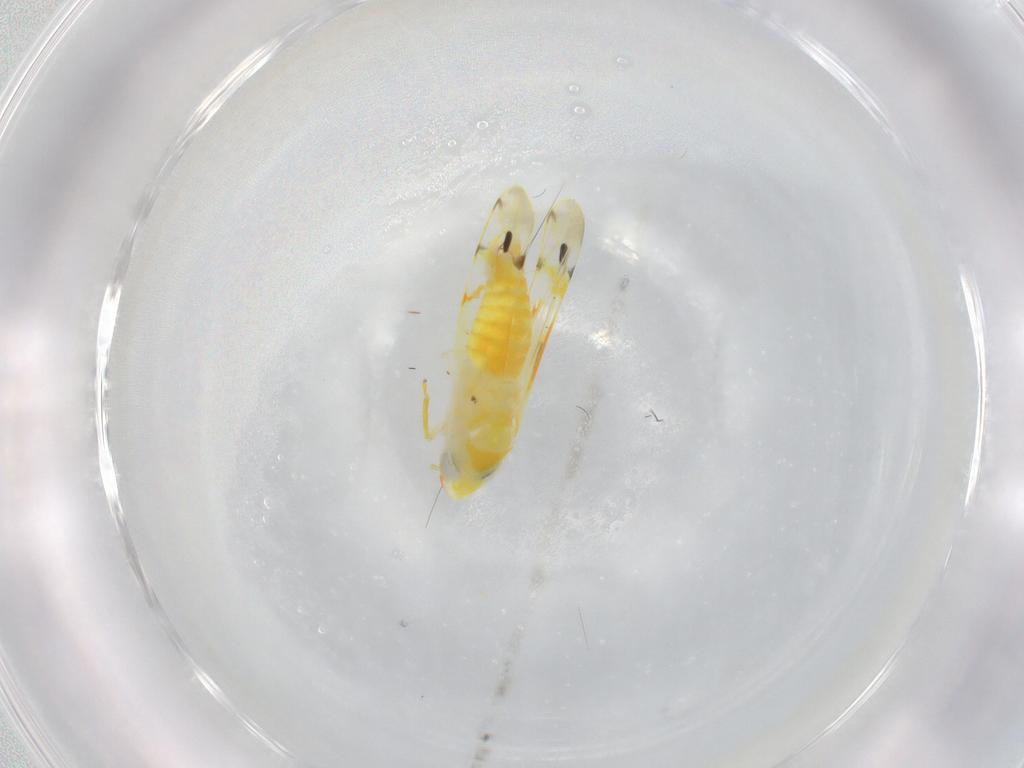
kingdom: Animalia
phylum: Arthropoda
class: Insecta
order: Hemiptera
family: Cicadellidae
